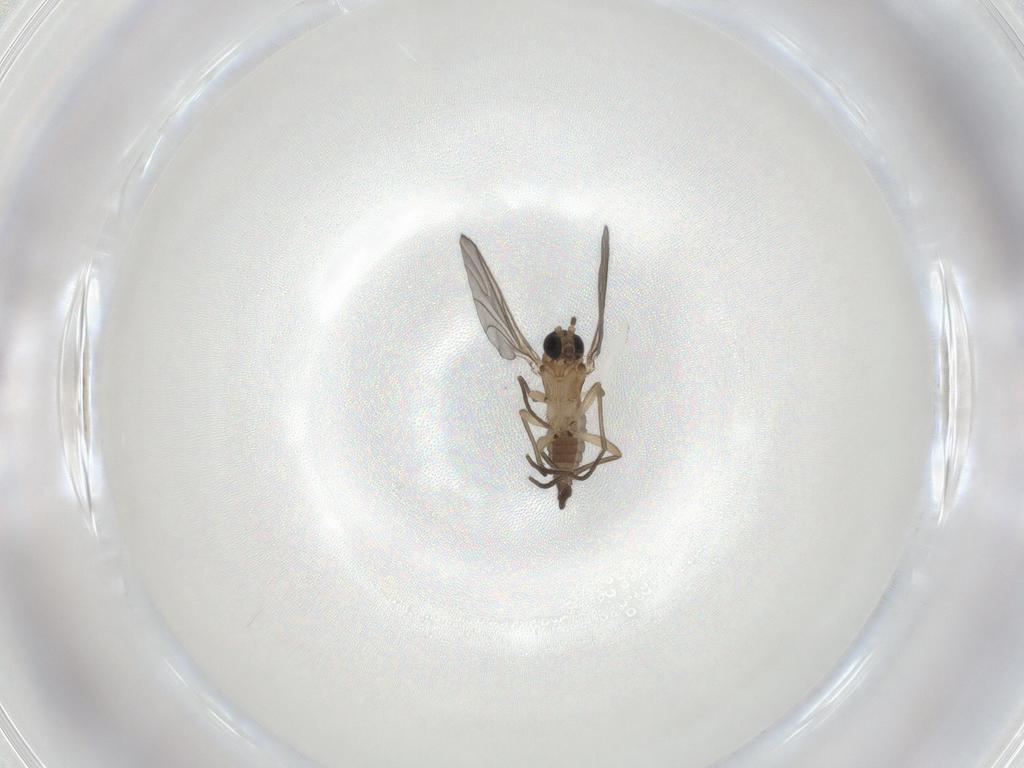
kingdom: Animalia
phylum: Arthropoda
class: Insecta
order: Diptera
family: Sciaridae
